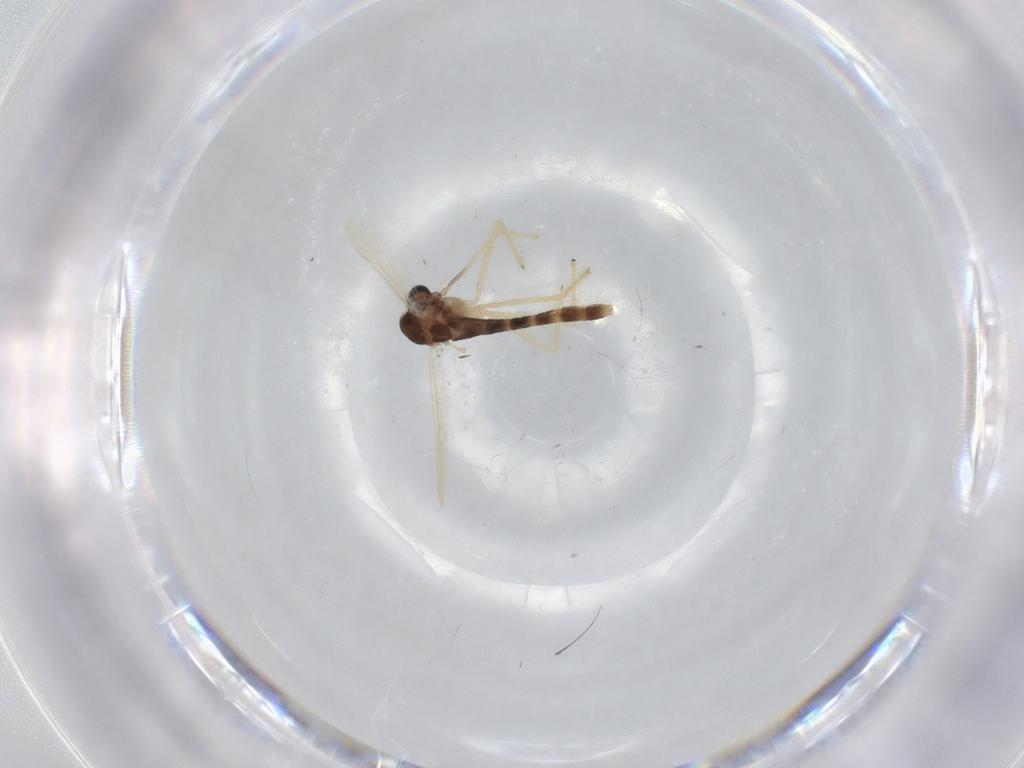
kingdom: Animalia
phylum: Arthropoda
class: Insecta
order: Diptera
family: Chironomidae
